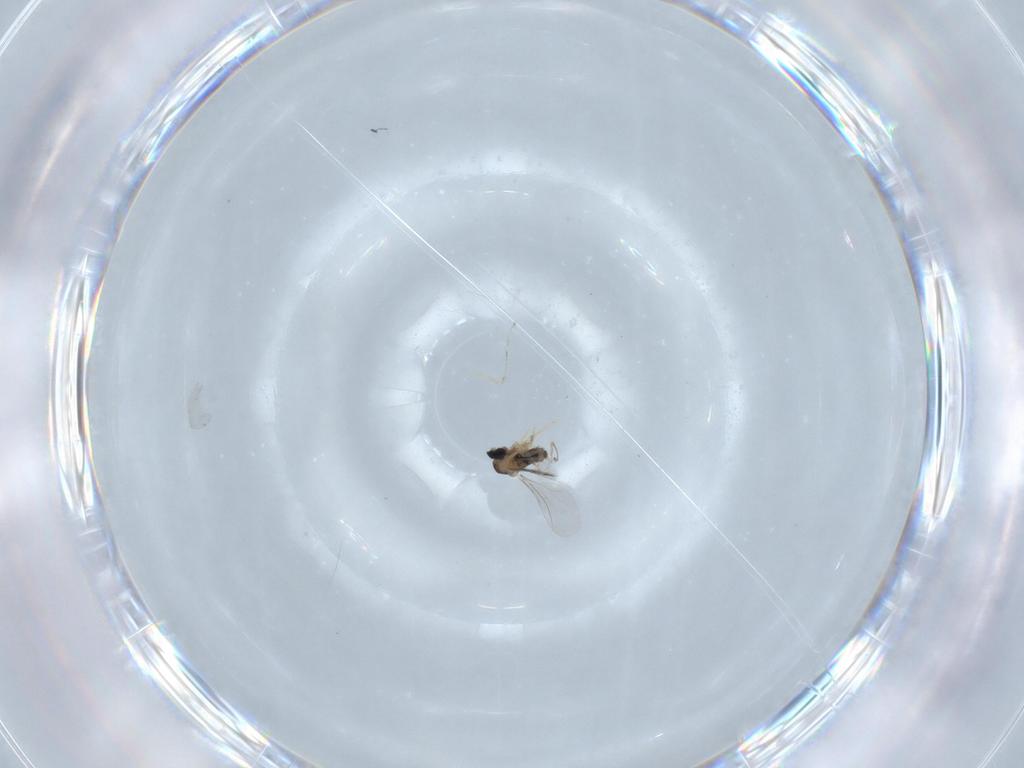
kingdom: Animalia
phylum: Arthropoda
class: Insecta
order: Diptera
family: Cecidomyiidae
